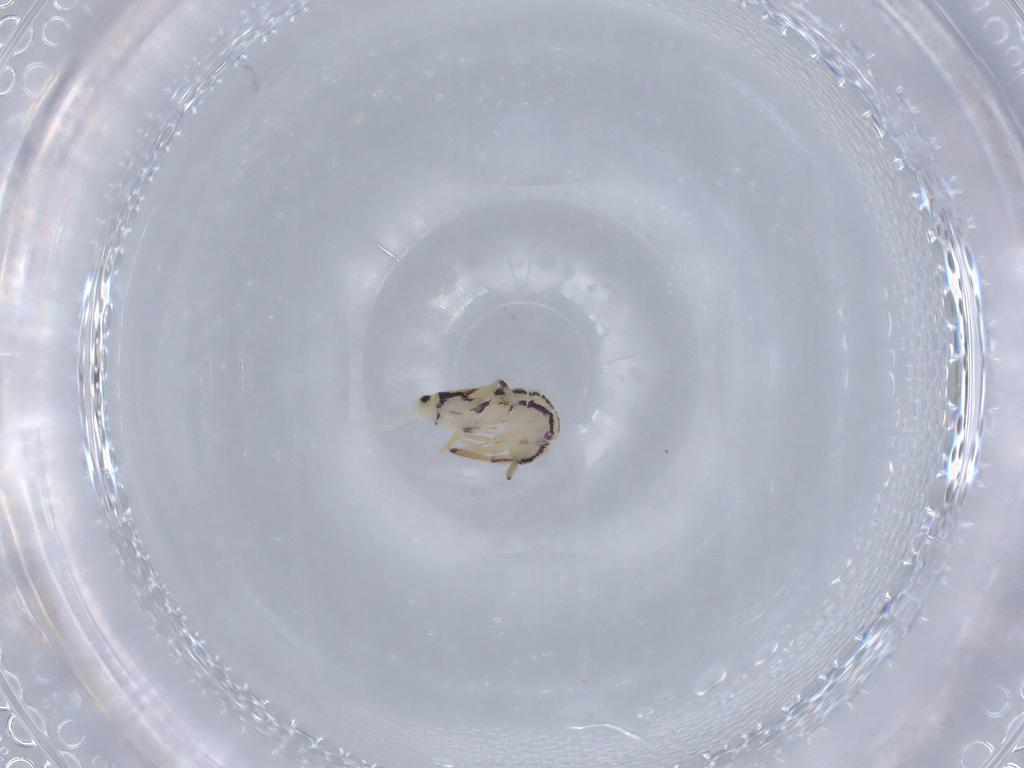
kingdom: Animalia
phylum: Arthropoda
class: Collembola
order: Entomobryomorpha
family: Entomobryidae
